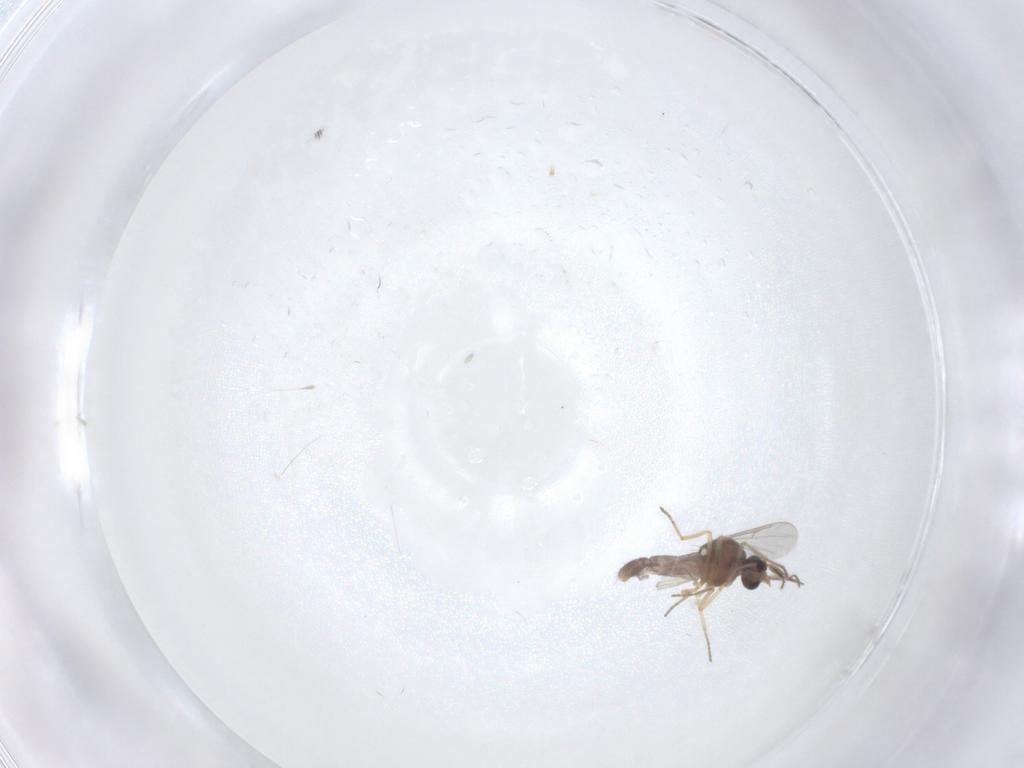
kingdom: Animalia
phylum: Arthropoda
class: Insecta
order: Diptera
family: Ceratopogonidae
